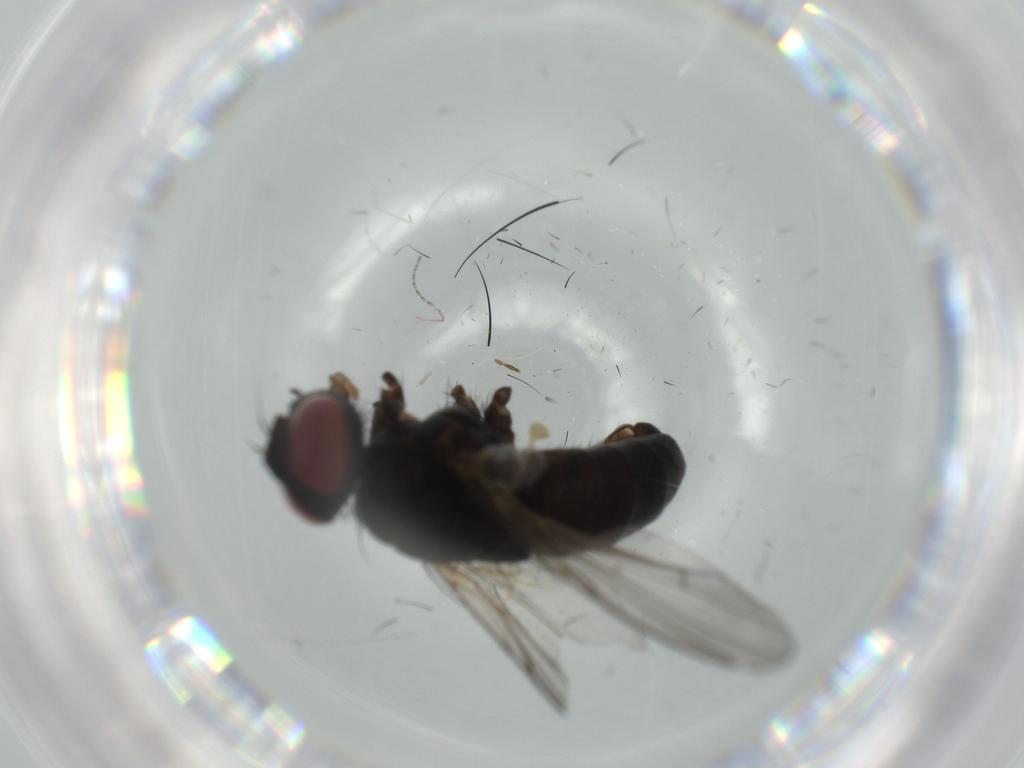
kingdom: Animalia
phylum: Arthropoda
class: Insecta
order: Diptera
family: Muscidae
